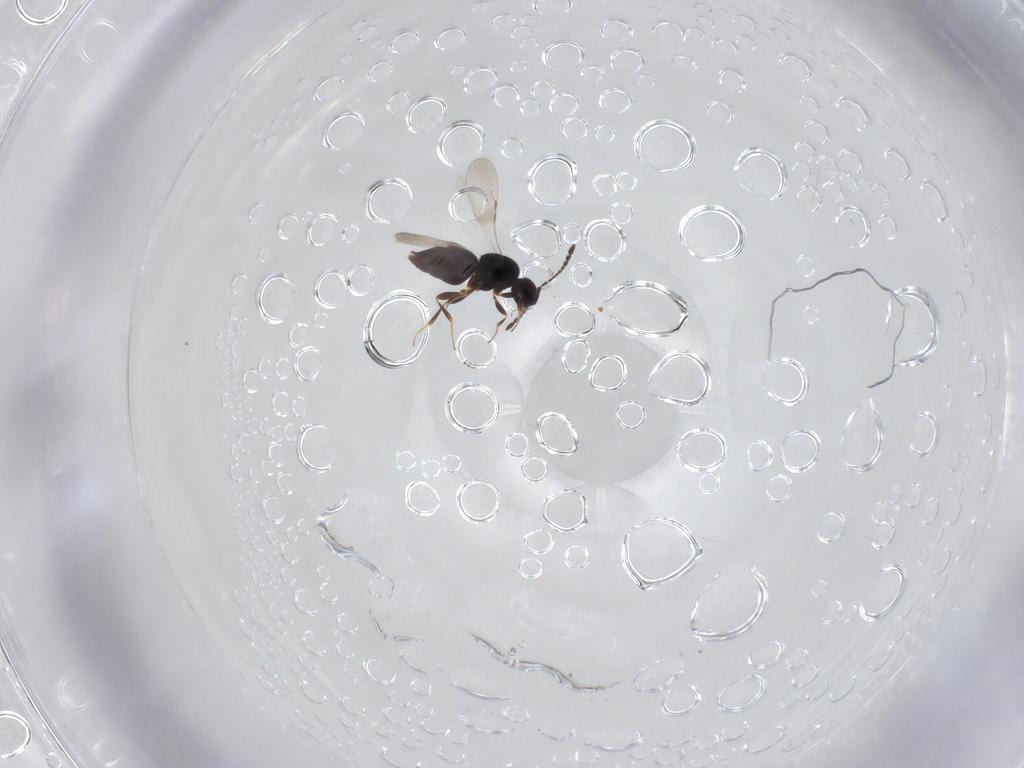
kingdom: Animalia
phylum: Arthropoda
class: Insecta
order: Hymenoptera
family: Ceraphronidae
